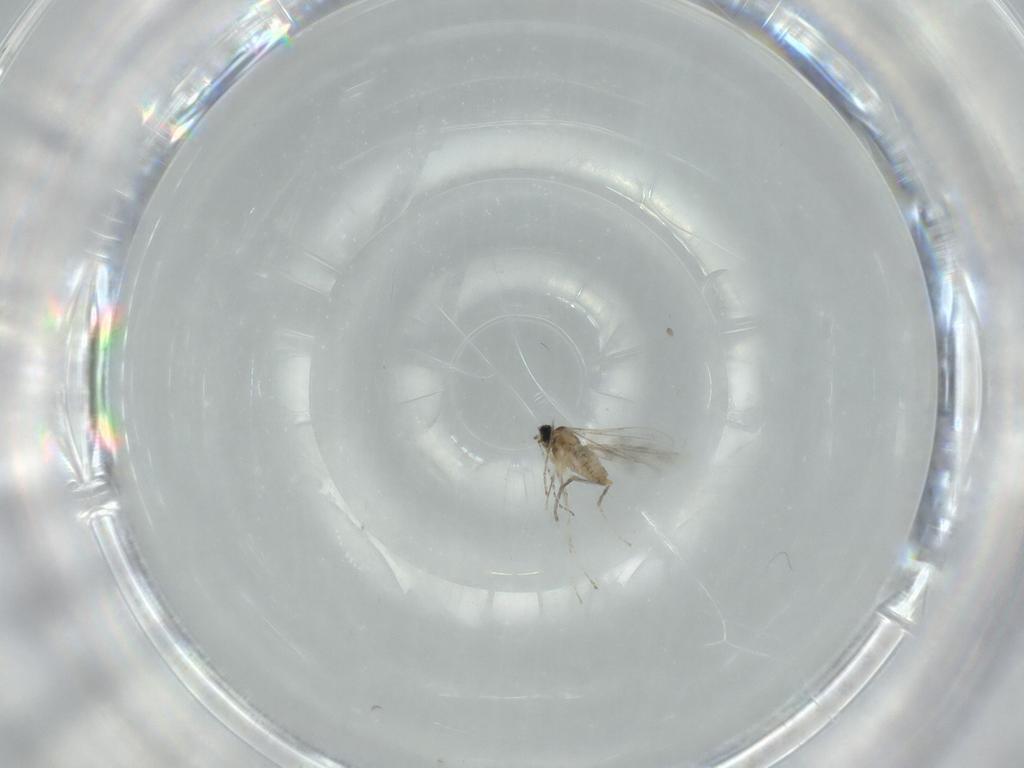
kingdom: Animalia
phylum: Arthropoda
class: Insecta
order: Diptera
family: Cecidomyiidae
